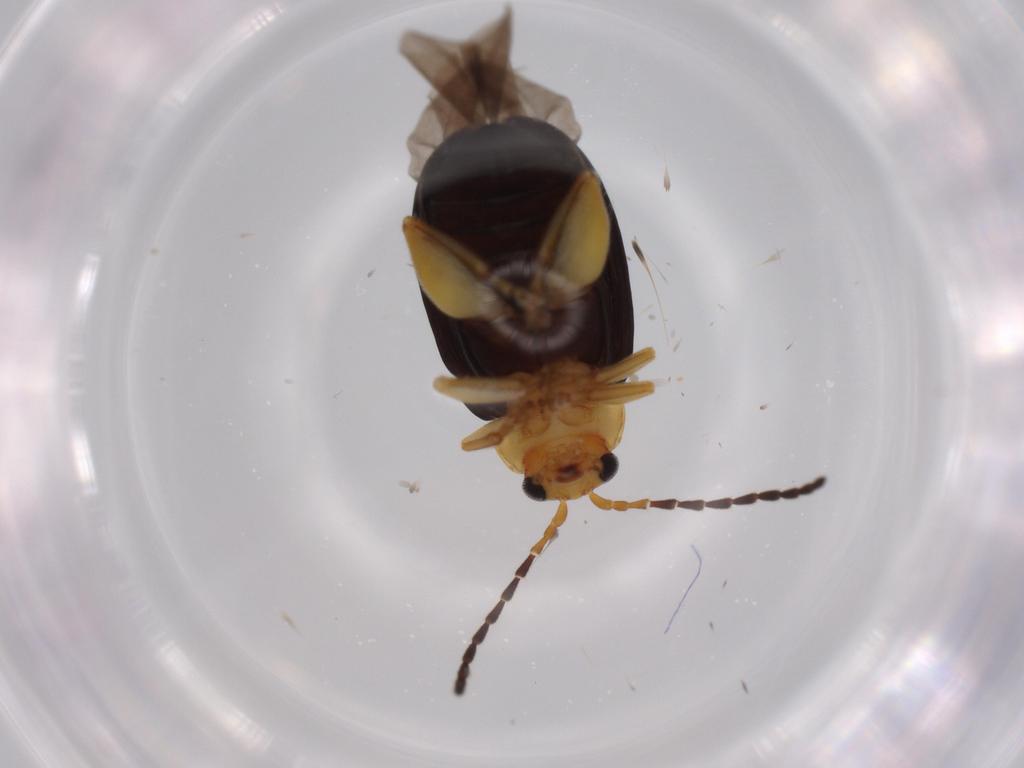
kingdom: Animalia
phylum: Arthropoda
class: Insecta
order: Coleoptera
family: Chrysomelidae
